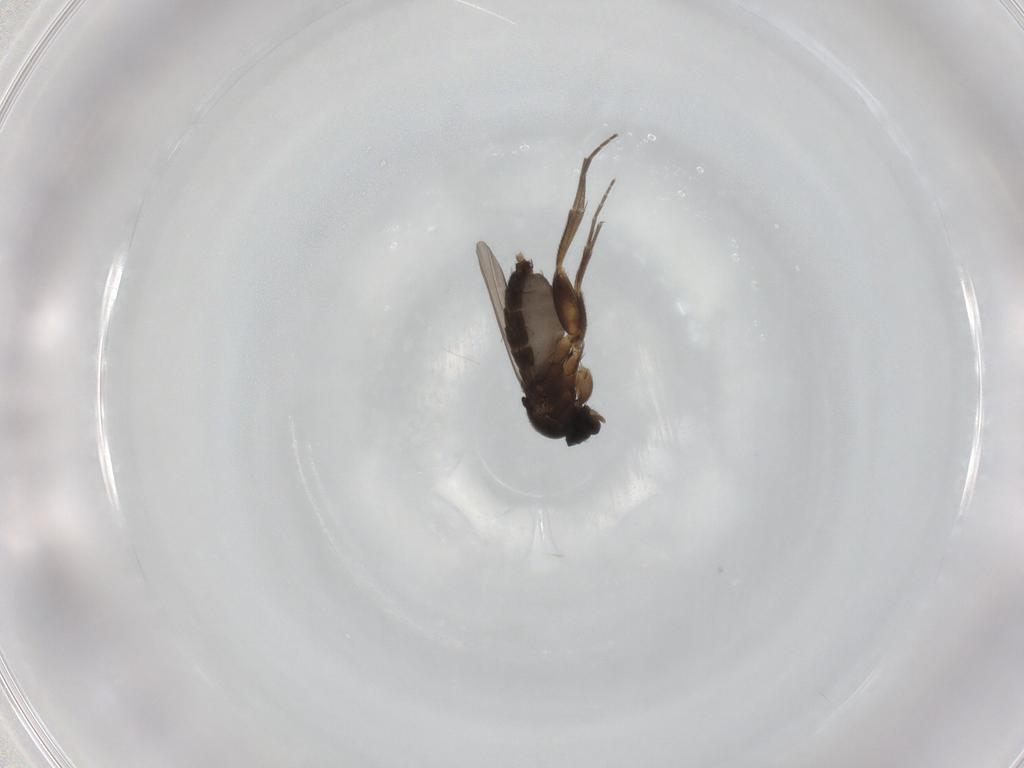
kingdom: Animalia
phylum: Arthropoda
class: Insecta
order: Diptera
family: Phoridae
